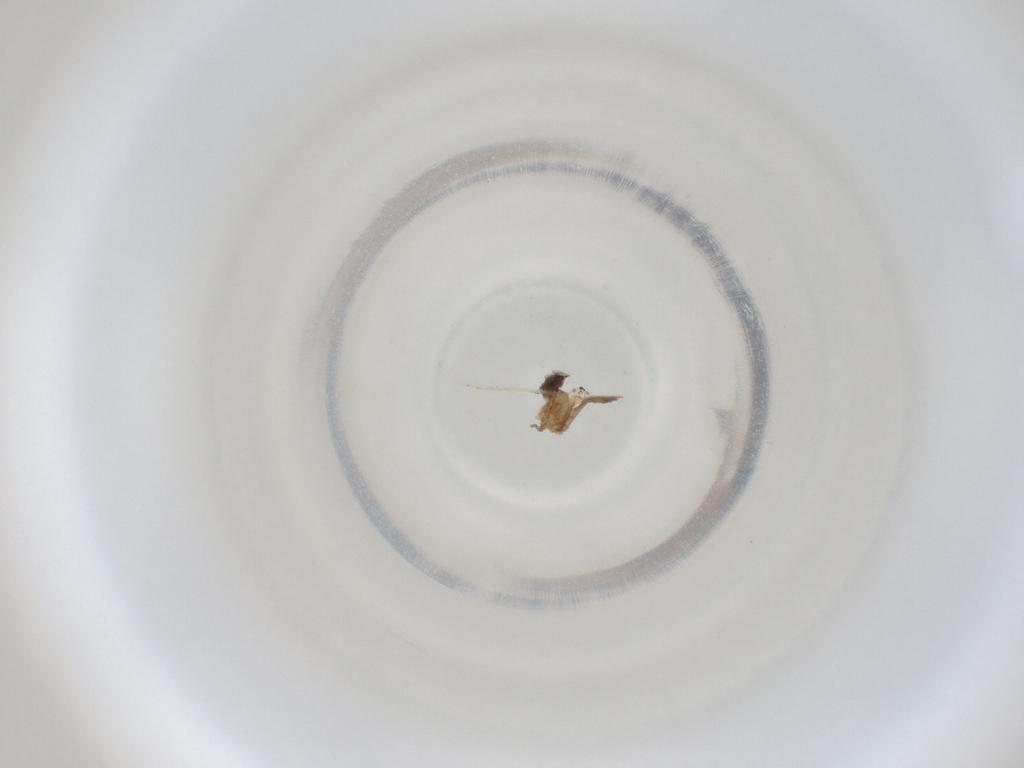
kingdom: Animalia
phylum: Arthropoda
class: Insecta
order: Diptera
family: Cecidomyiidae
